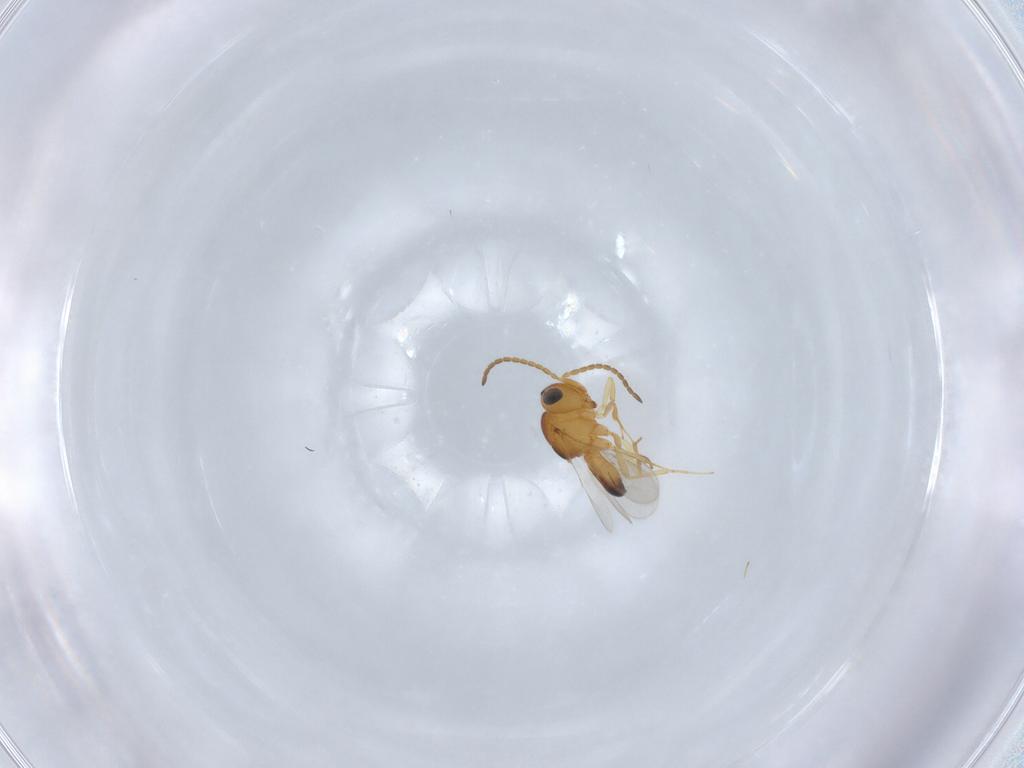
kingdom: Animalia
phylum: Arthropoda
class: Insecta
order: Hymenoptera
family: Scelionidae
